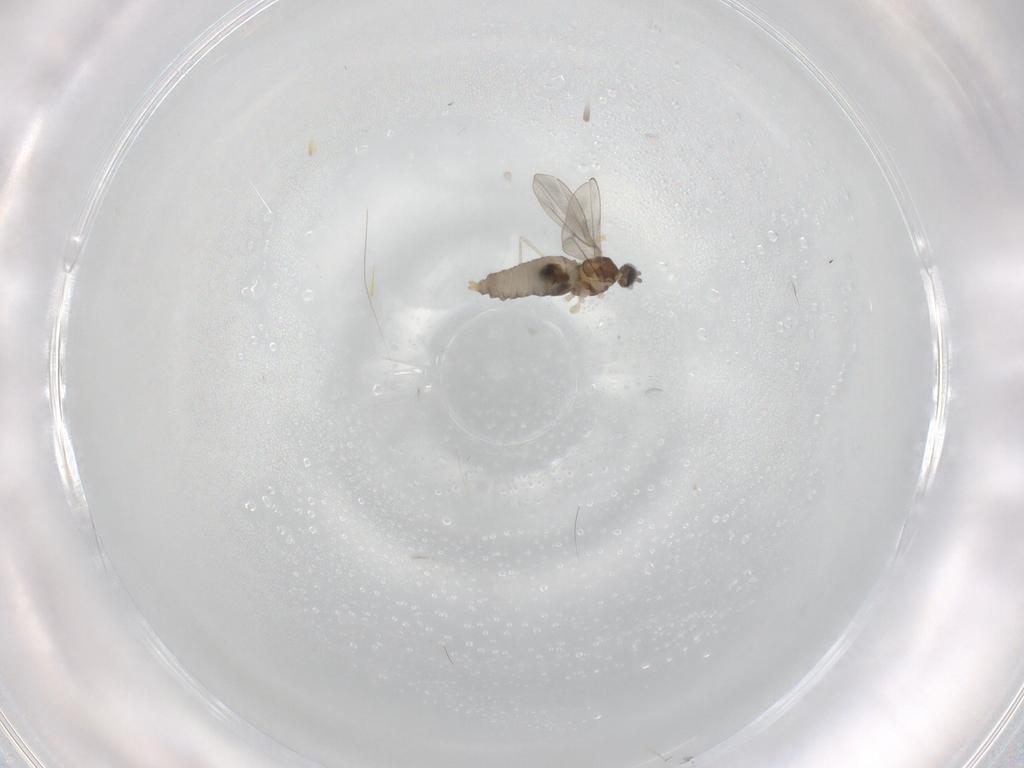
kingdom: Animalia
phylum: Arthropoda
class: Insecta
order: Diptera
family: Cecidomyiidae
